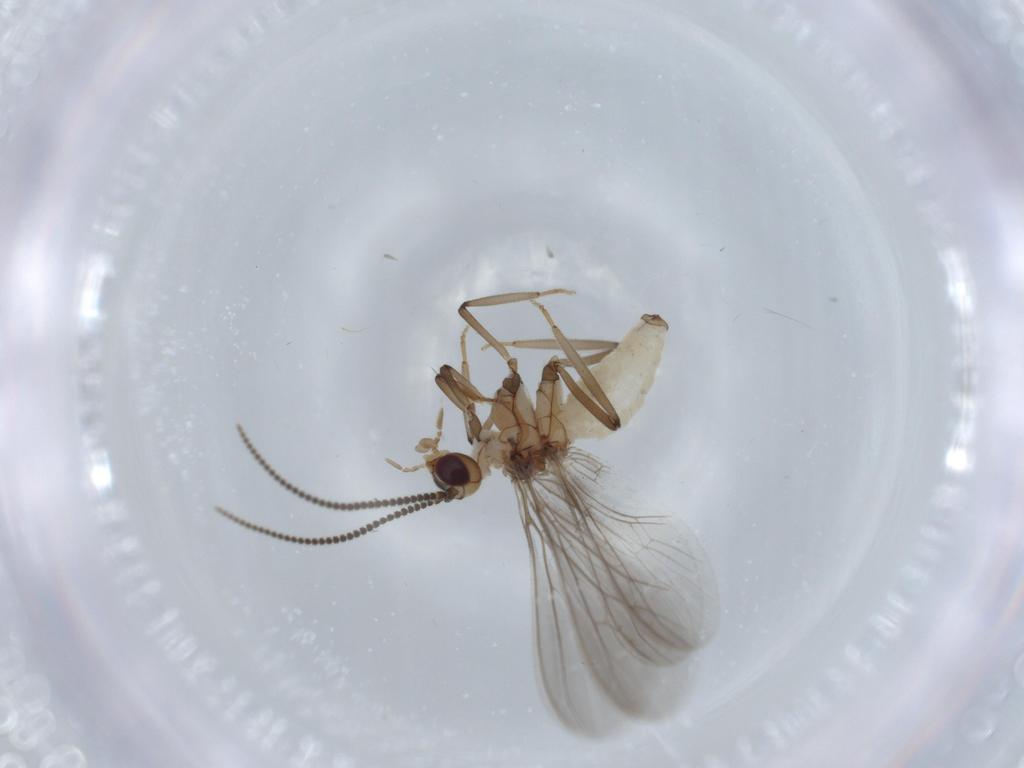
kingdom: Animalia
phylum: Arthropoda
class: Insecta
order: Neuroptera
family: Coniopterygidae
